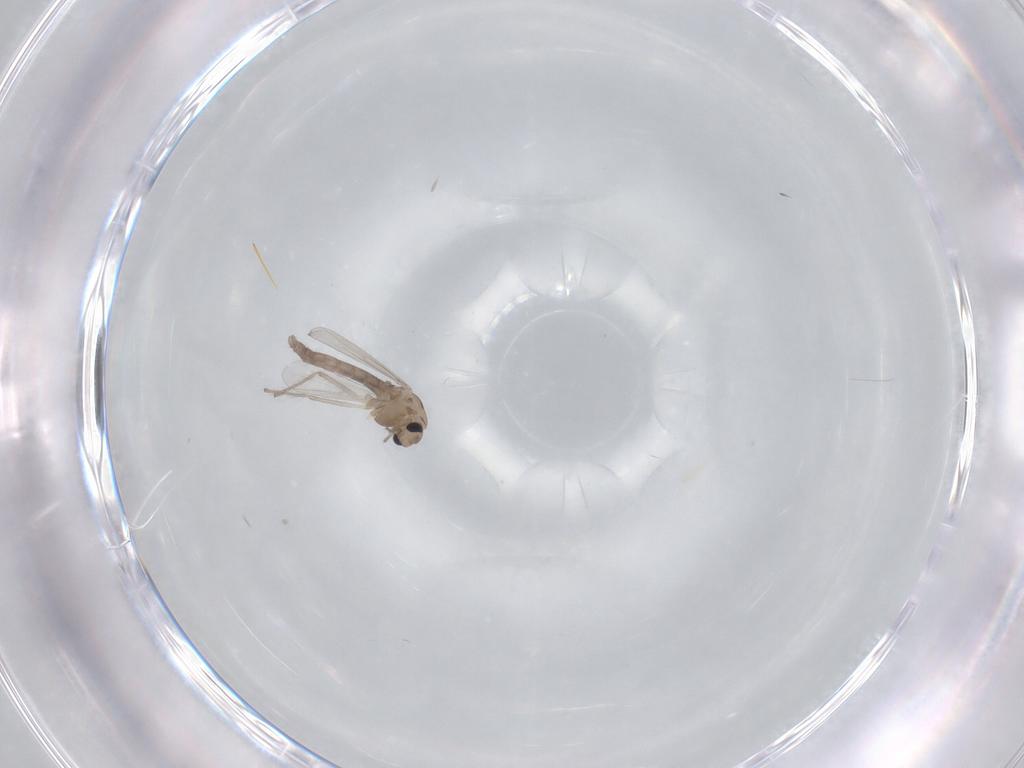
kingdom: Animalia
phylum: Arthropoda
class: Insecta
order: Diptera
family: Chironomidae
